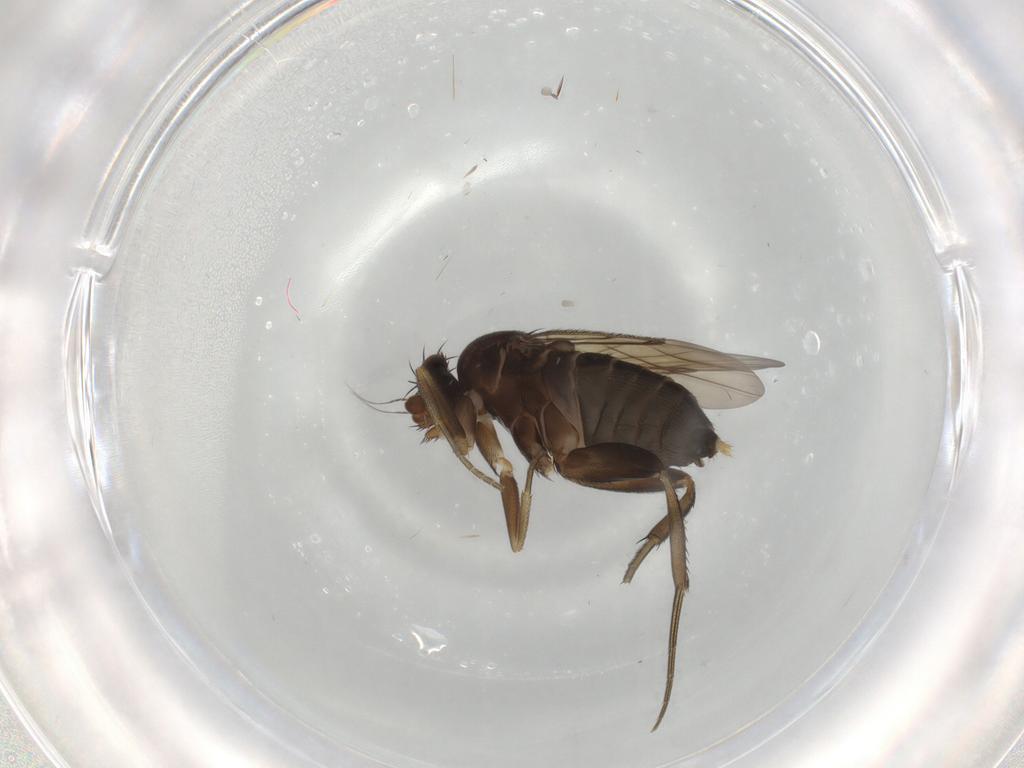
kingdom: Animalia
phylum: Arthropoda
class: Insecta
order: Diptera
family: Phoridae
